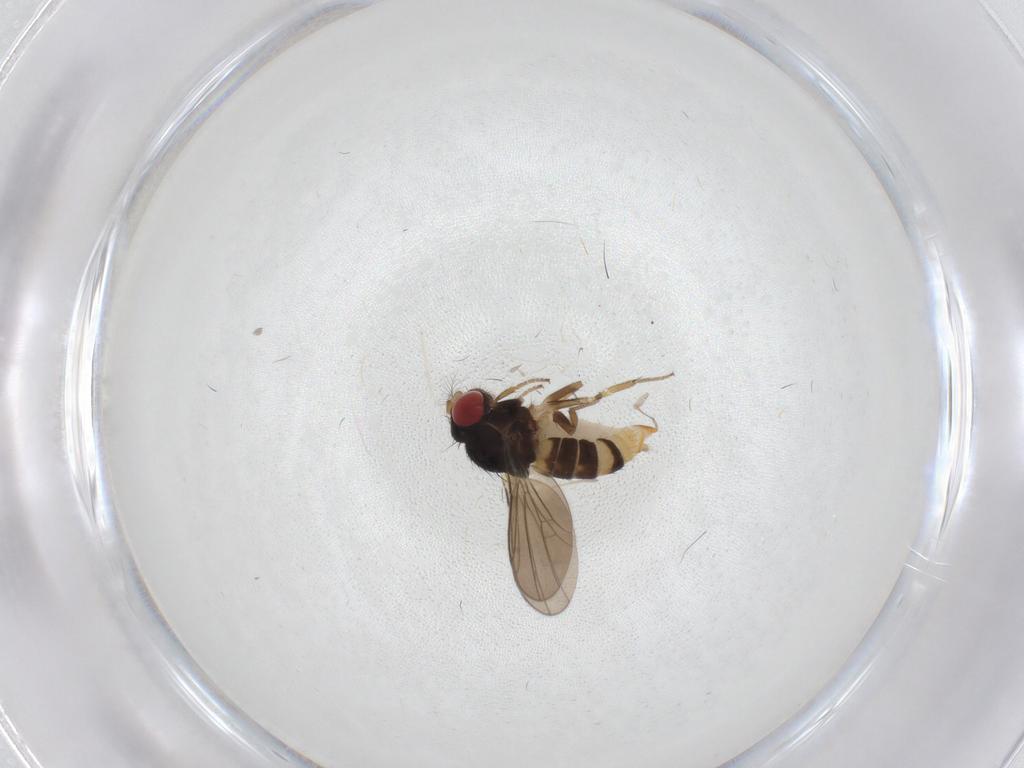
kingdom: Animalia
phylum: Arthropoda
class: Insecta
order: Diptera
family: Drosophilidae
